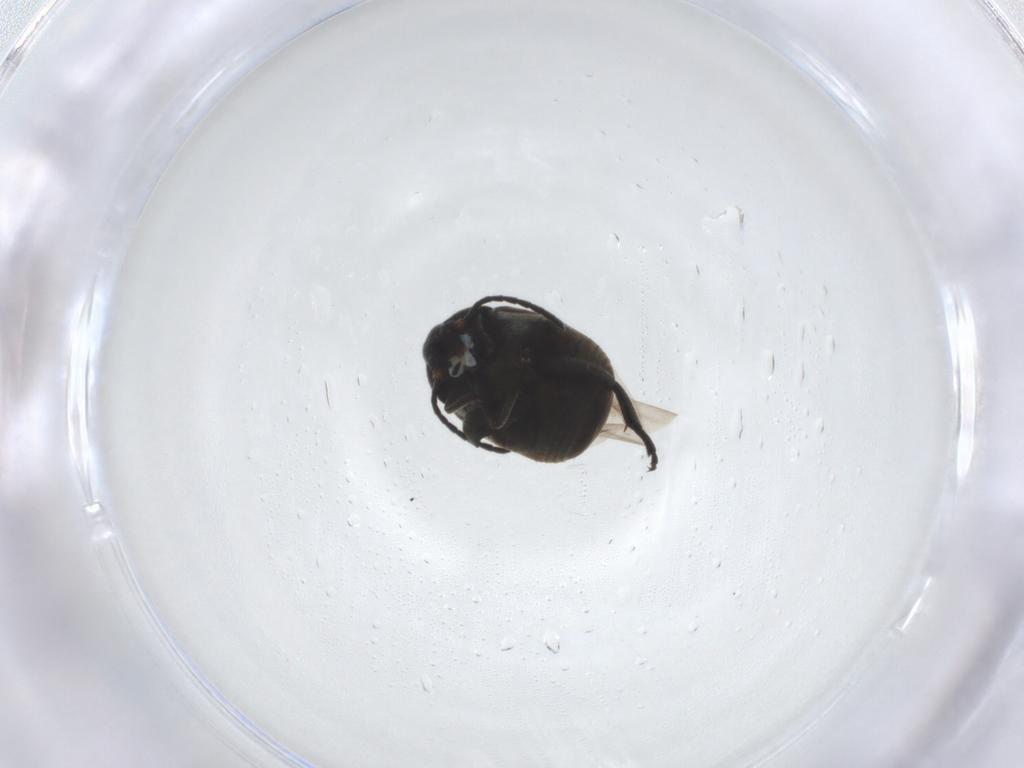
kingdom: Animalia
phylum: Arthropoda
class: Insecta
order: Coleoptera
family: Chrysomelidae
